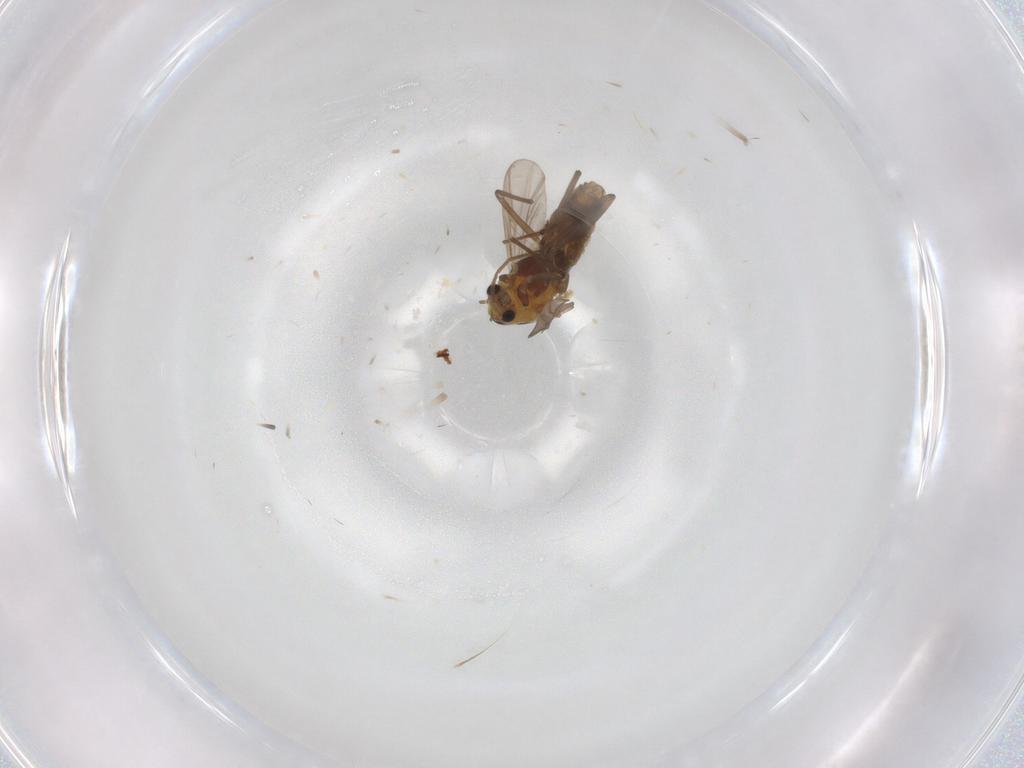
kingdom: Animalia
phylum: Arthropoda
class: Insecta
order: Diptera
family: Chironomidae
